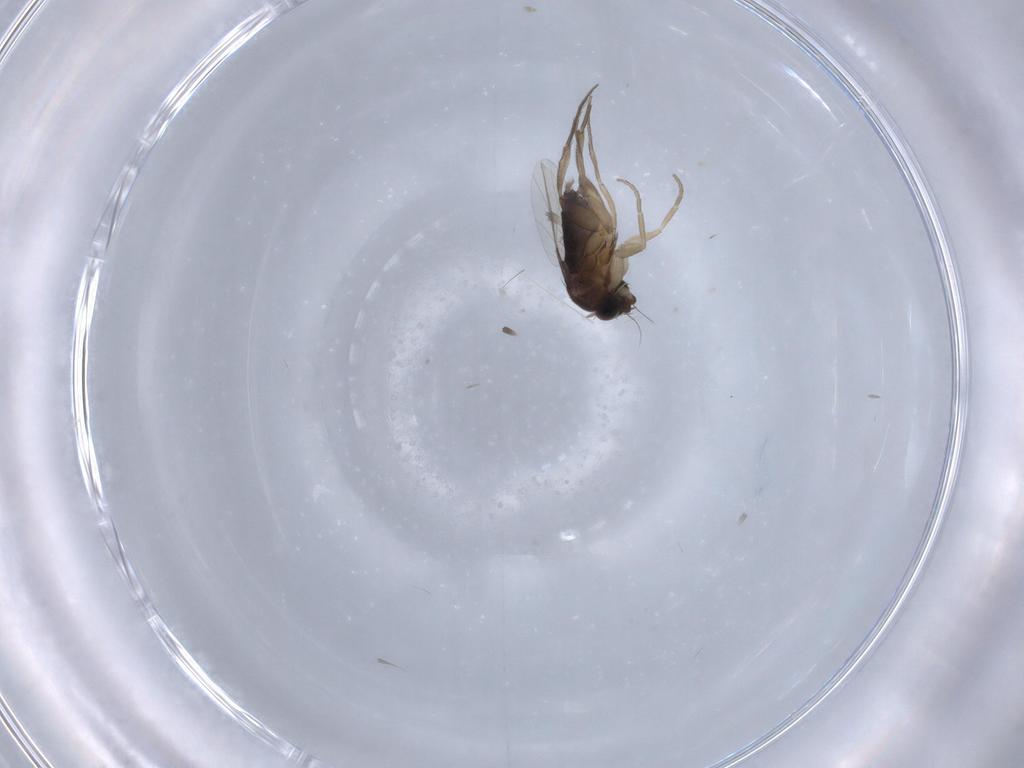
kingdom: Animalia
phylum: Arthropoda
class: Insecta
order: Diptera
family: Phoridae
